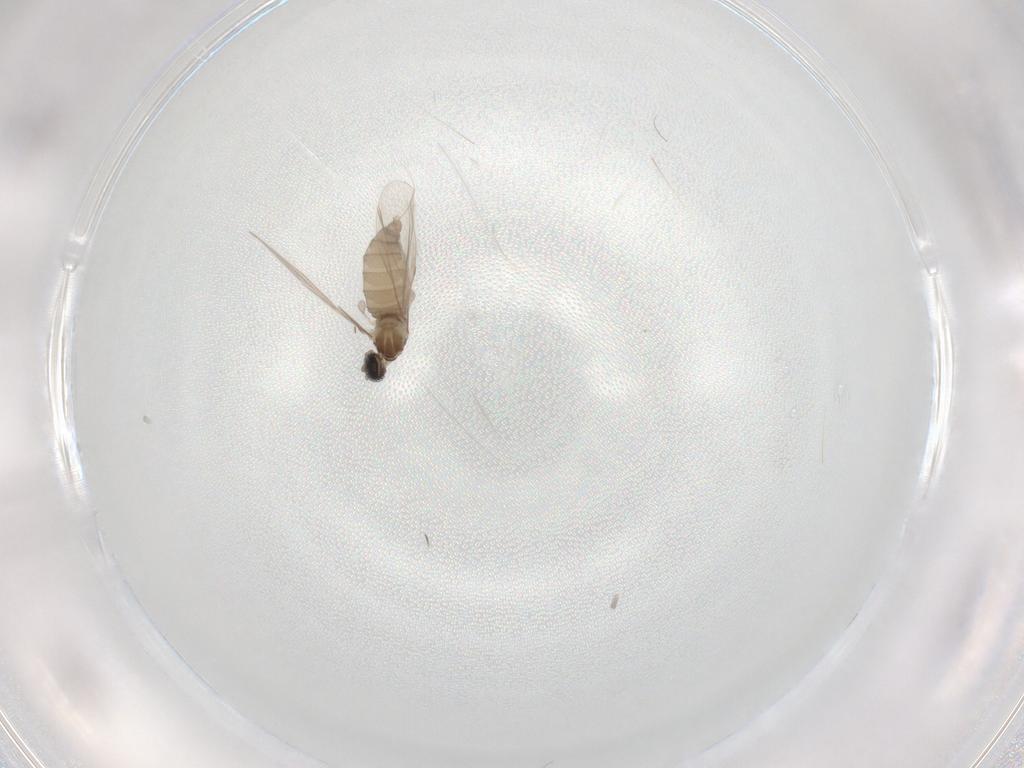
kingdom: Animalia
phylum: Arthropoda
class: Insecta
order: Diptera
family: Cecidomyiidae
